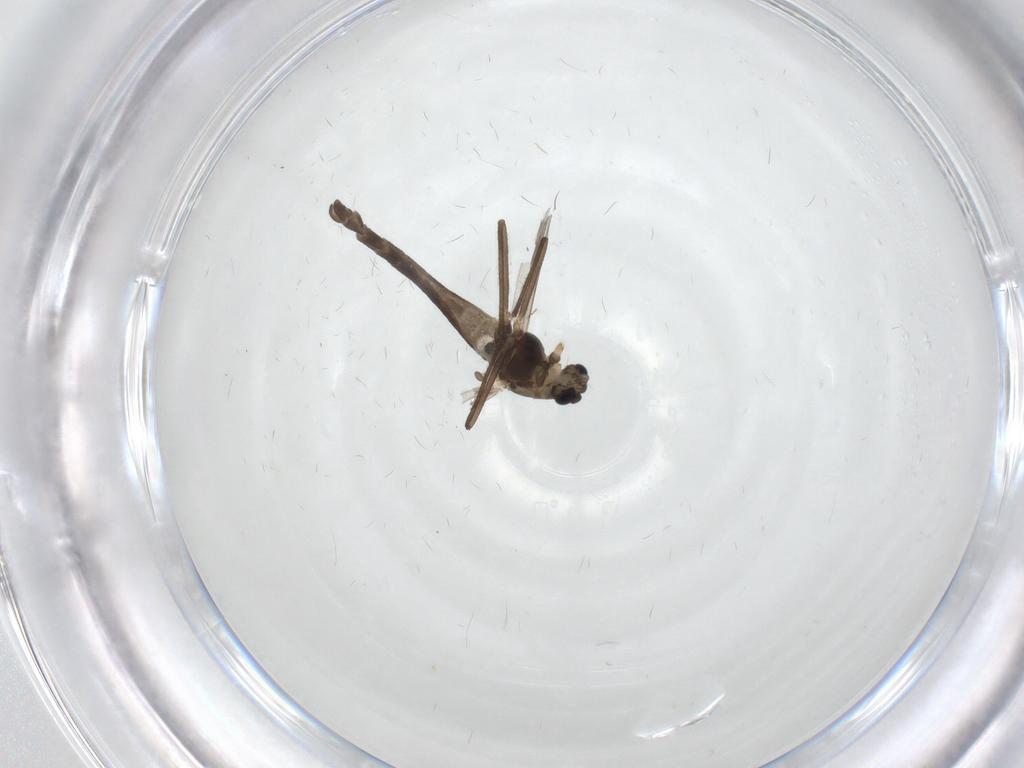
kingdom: Animalia
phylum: Arthropoda
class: Insecta
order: Diptera
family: Chironomidae
